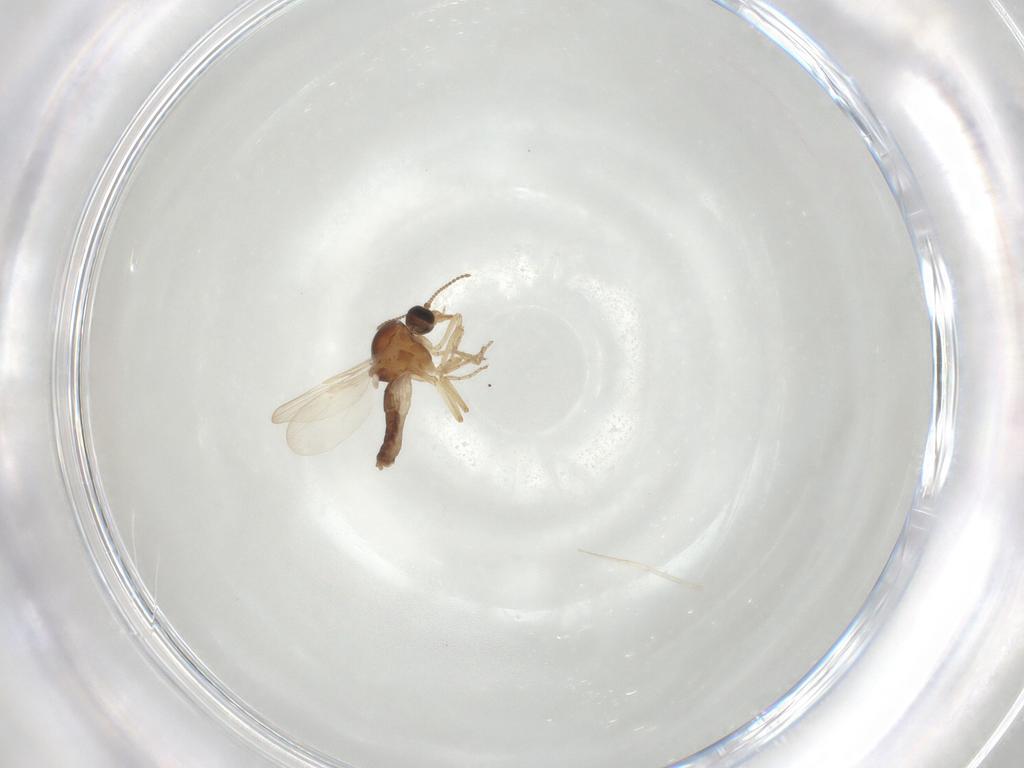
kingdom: Animalia
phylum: Arthropoda
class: Insecta
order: Diptera
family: Ceratopogonidae
